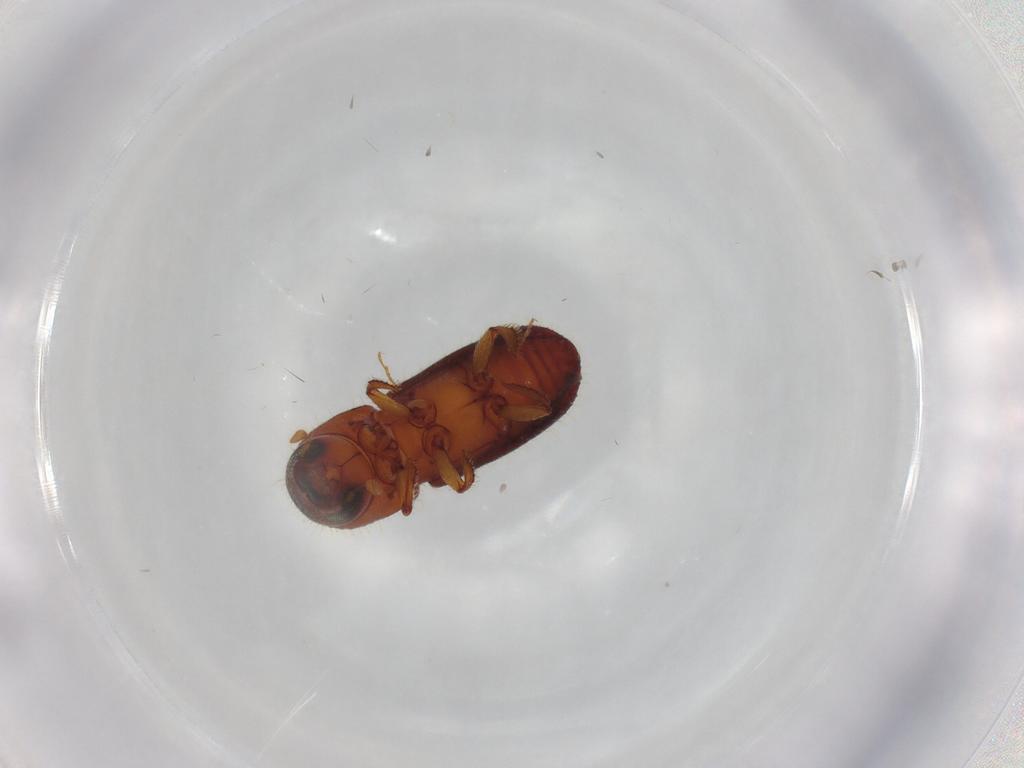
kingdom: Animalia
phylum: Arthropoda
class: Insecta
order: Coleoptera
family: Curculionidae
